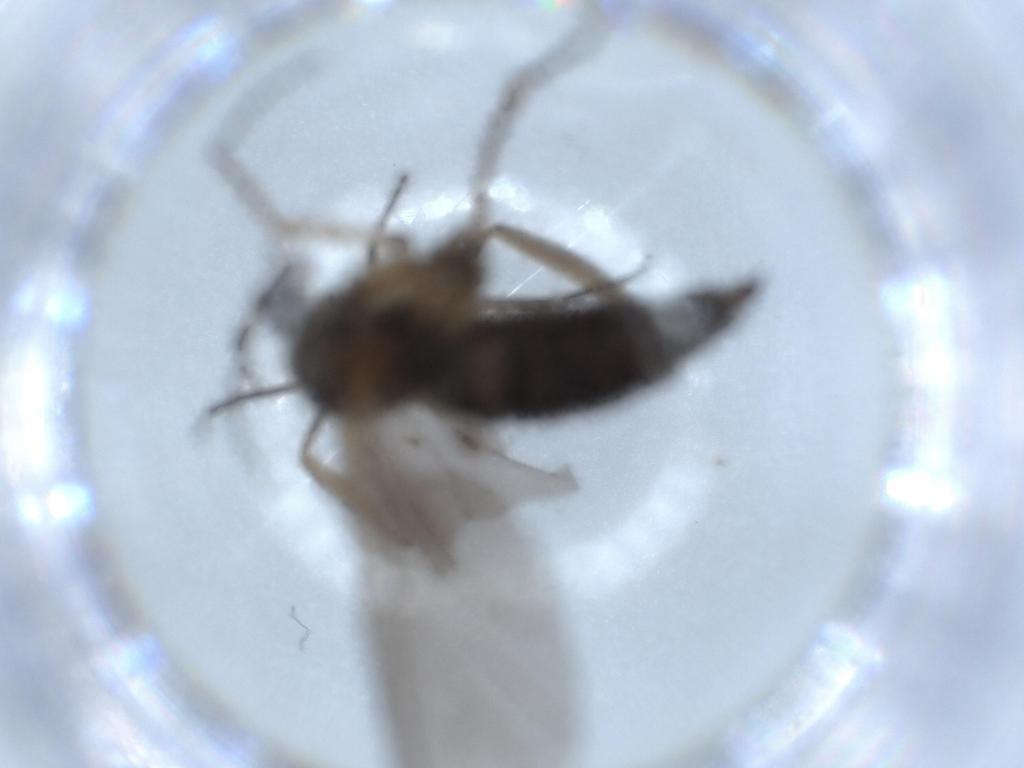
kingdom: Animalia
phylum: Arthropoda
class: Insecta
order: Diptera
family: Sciaridae
